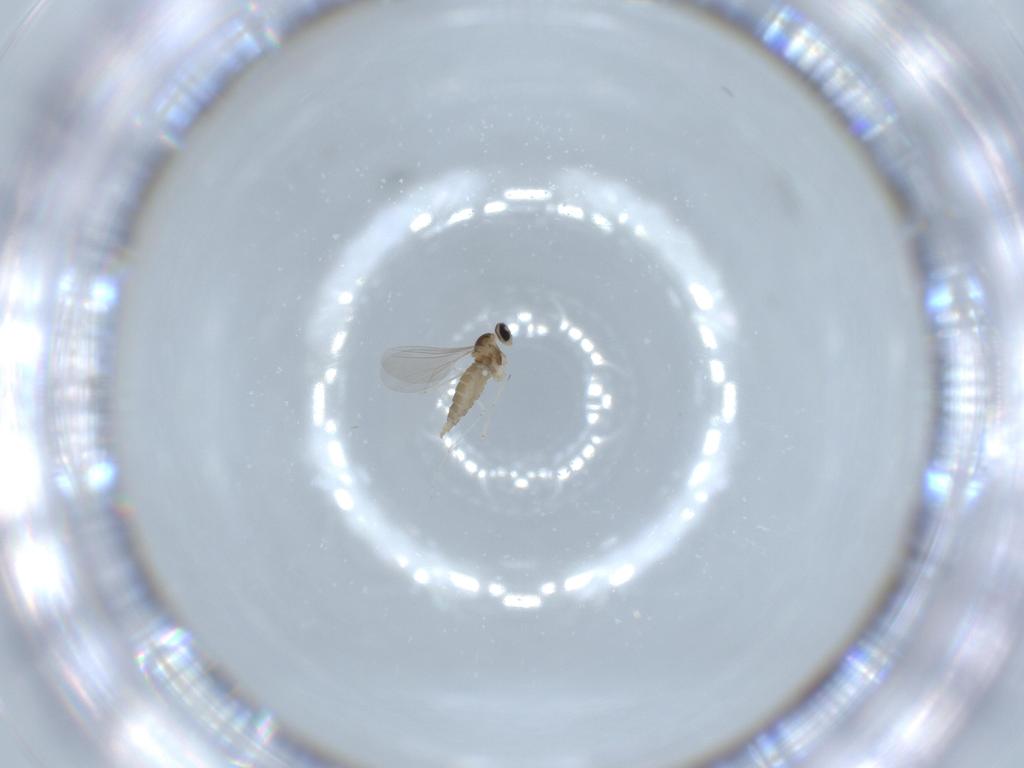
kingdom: Animalia
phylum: Arthropoda
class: Insecta
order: Diptera
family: Cecidomyiidae
